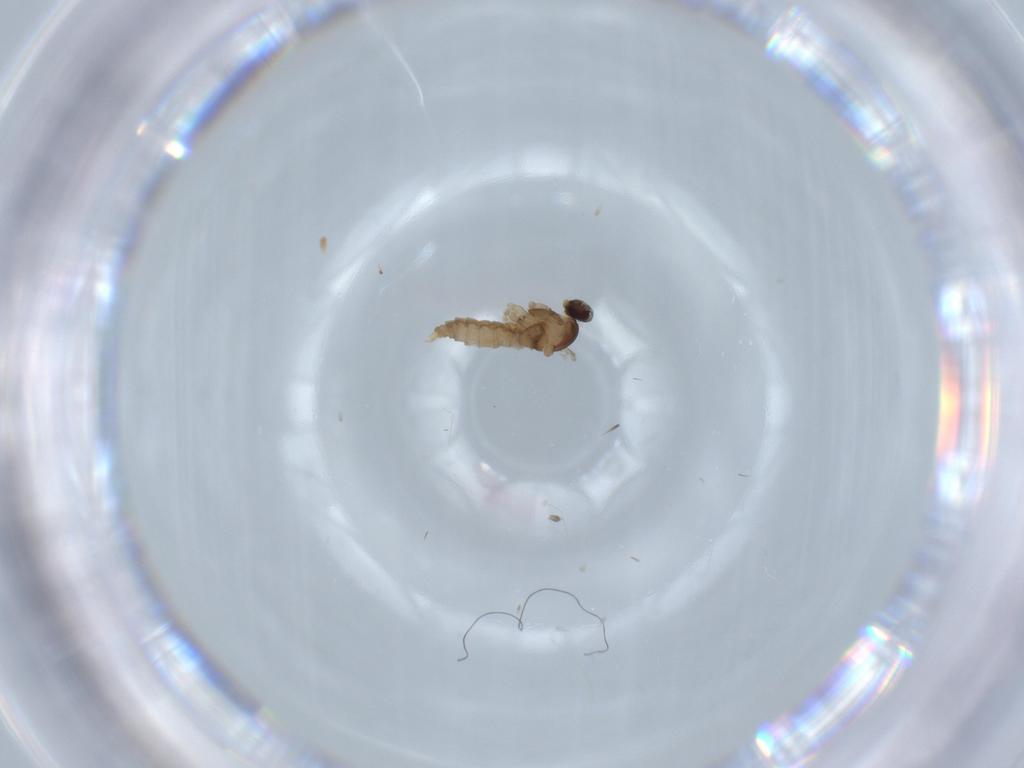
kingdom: Animalia
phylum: Arthropoda
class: Insecta
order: Diptera
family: Cecidomyiidae
